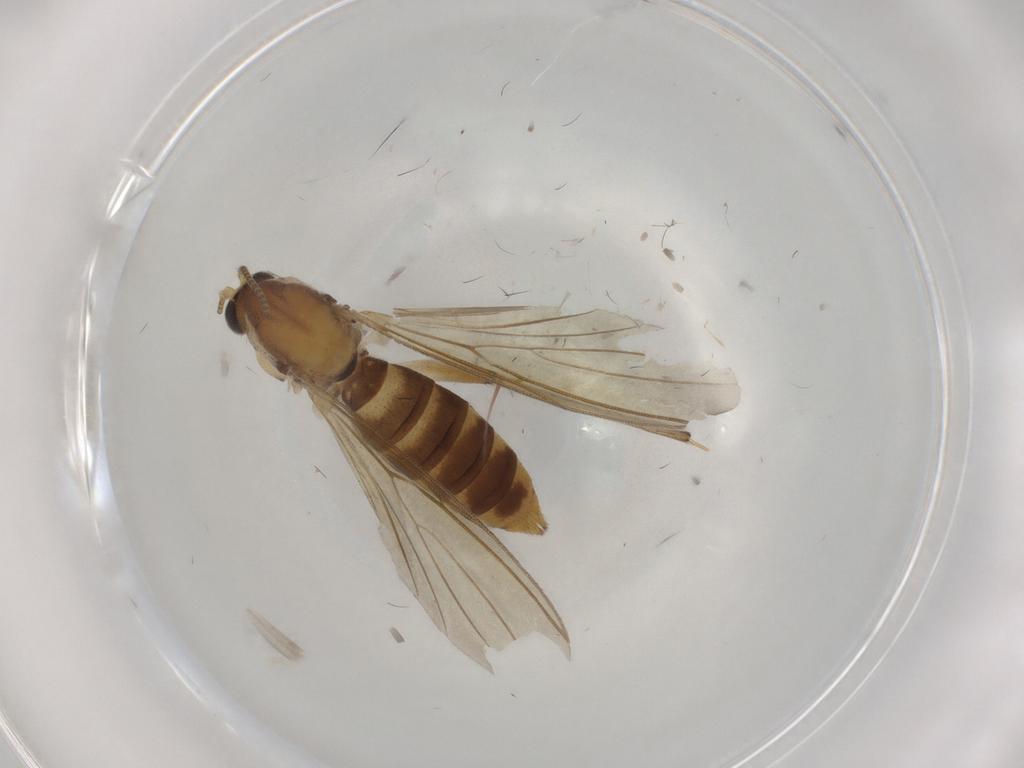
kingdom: Animalia
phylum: Arthropoda
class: Insecta
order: Diptera
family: Mycetophilidae
